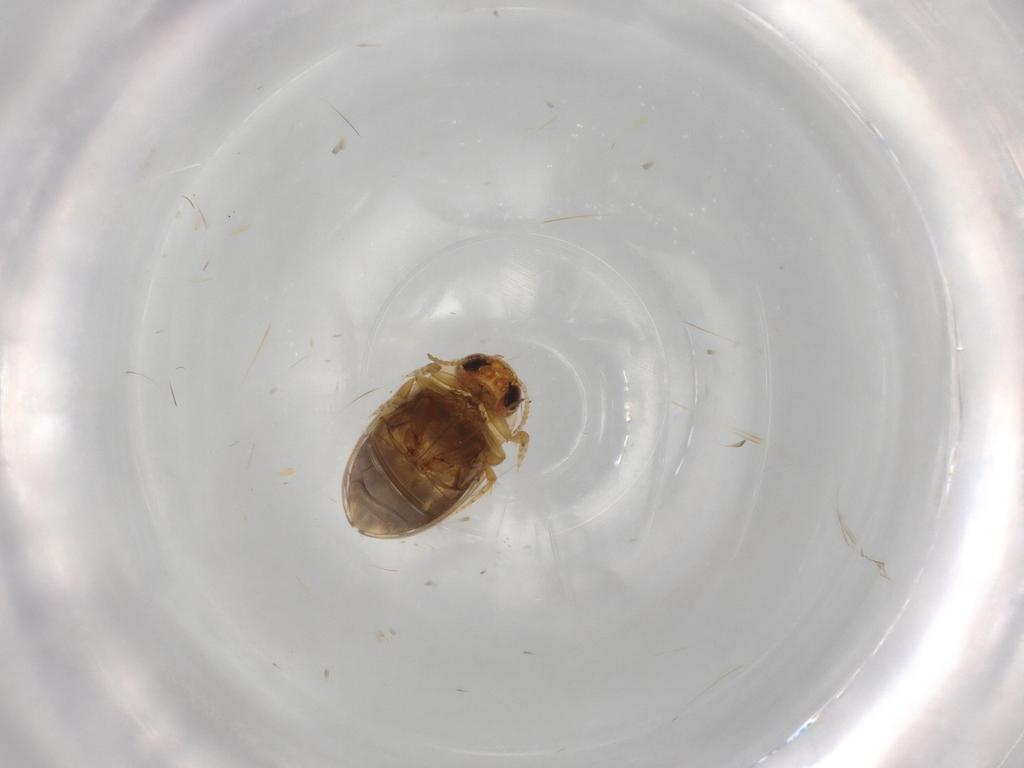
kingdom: Animalia
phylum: Arthropoda
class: Insecta
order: Coleoptera
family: Dytiscidae
